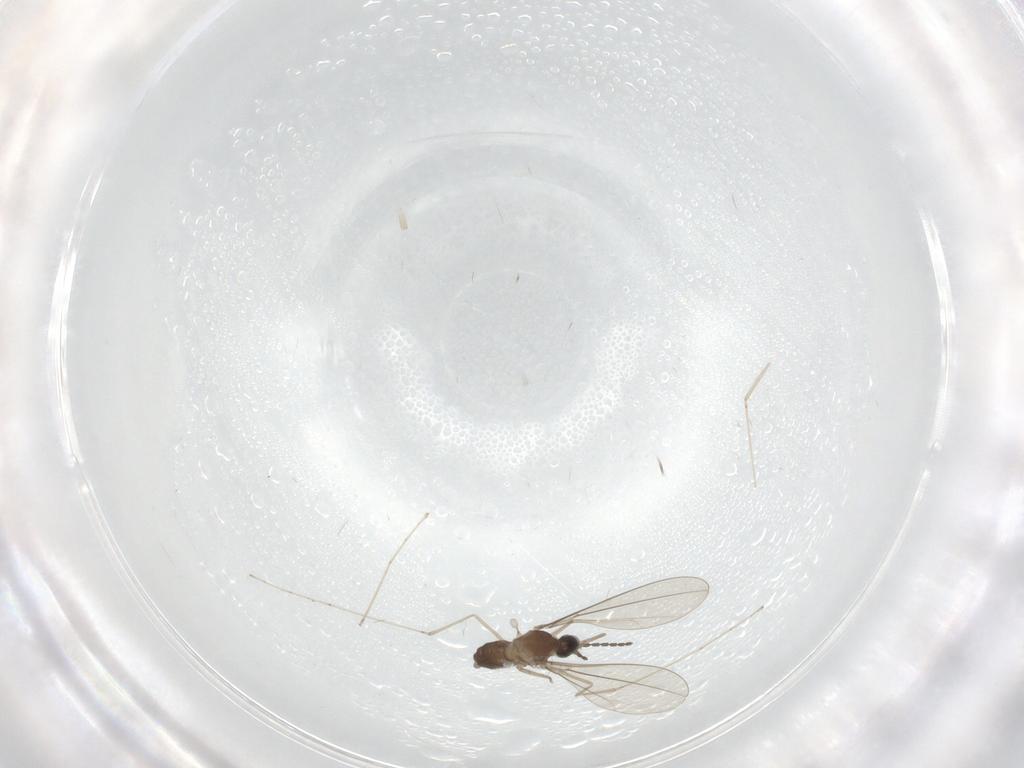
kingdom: Animalia
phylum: Arthropoda
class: Insecta
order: Diptera
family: Cecidomyiidae
